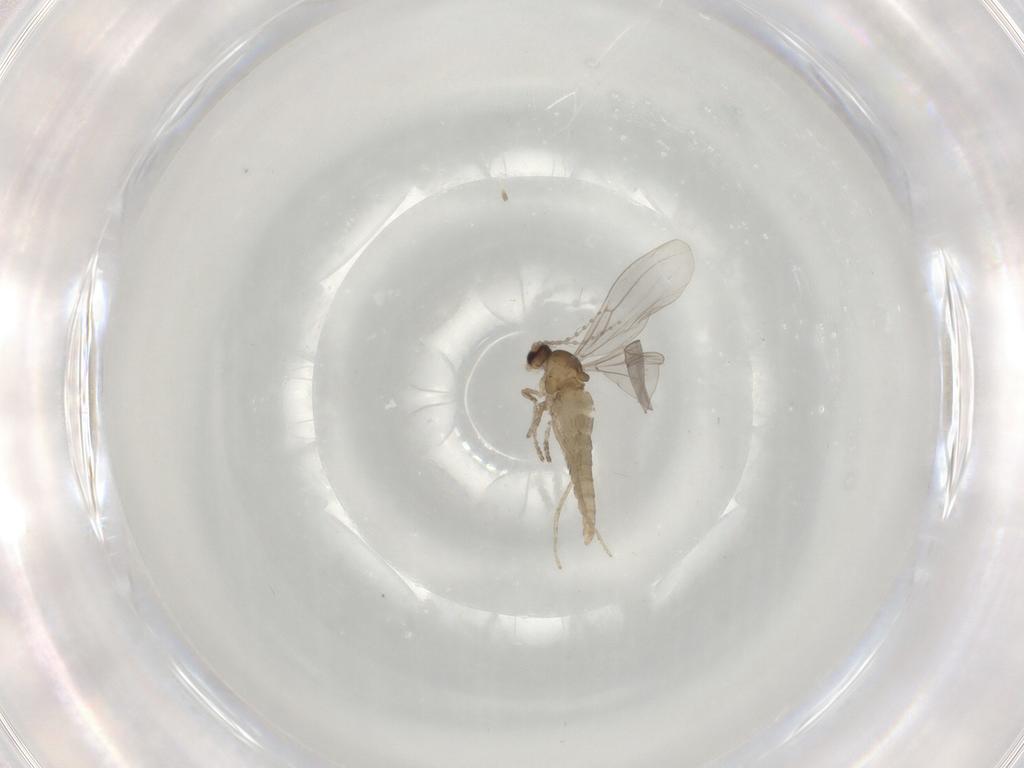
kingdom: Animalia
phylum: Arthropoda
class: Insecta
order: Diptera
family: Cecidomyiidae
